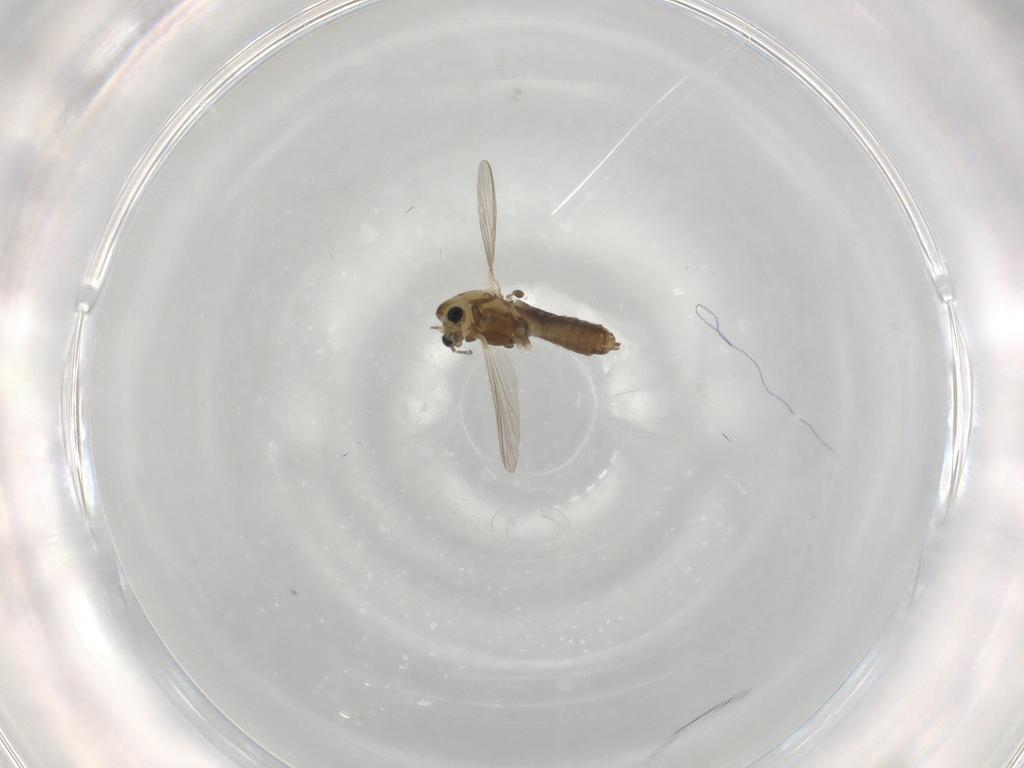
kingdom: Animalia
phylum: Arthropoda
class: Insecta
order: Diptera
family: Chironomidae
